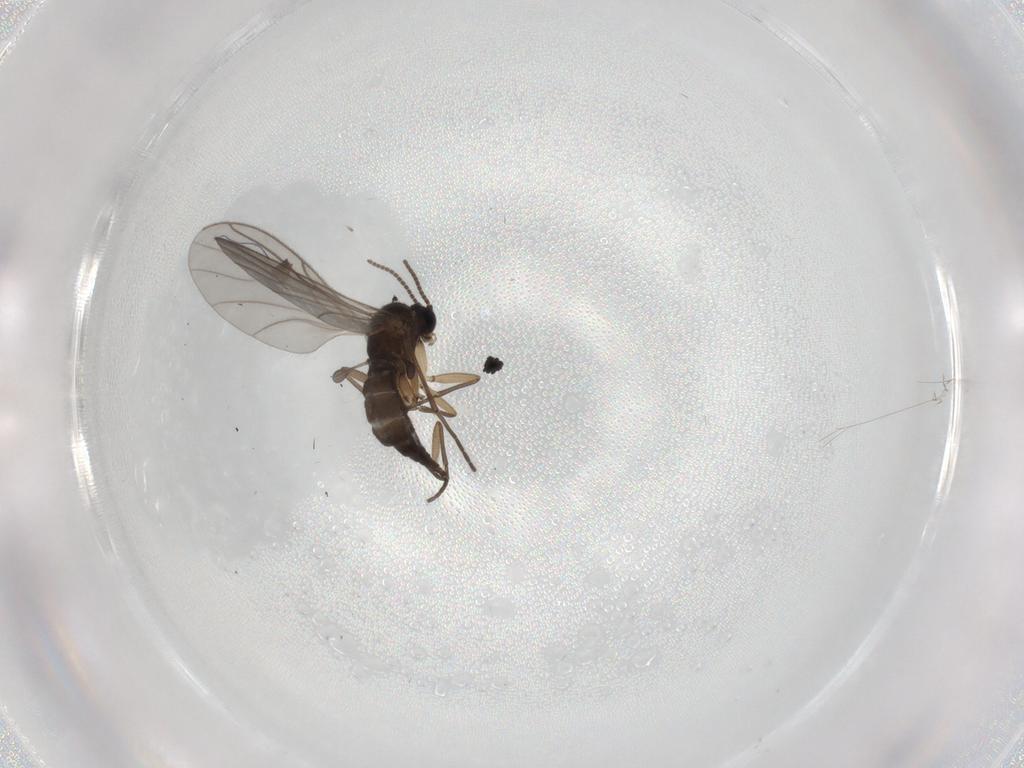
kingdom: Animalia
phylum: Arthropoda
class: Insecta
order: Diptera
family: Sciaridae
